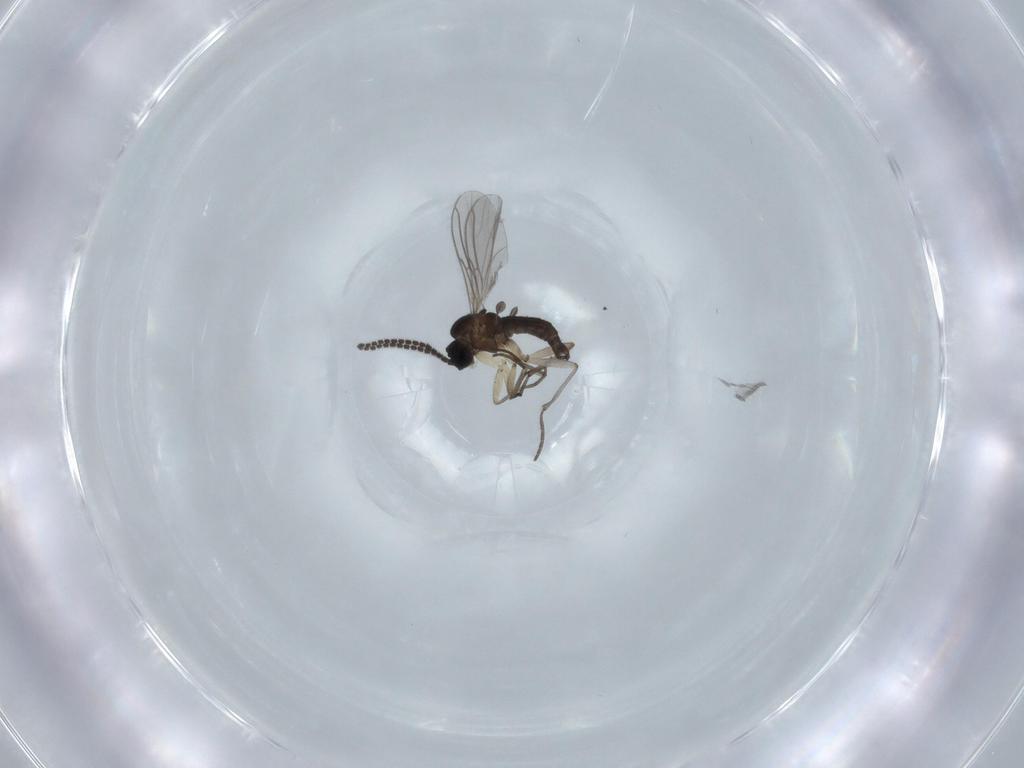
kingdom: Animalia
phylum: Arthropoda
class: Insecta
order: Diptera
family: Sciaridae
